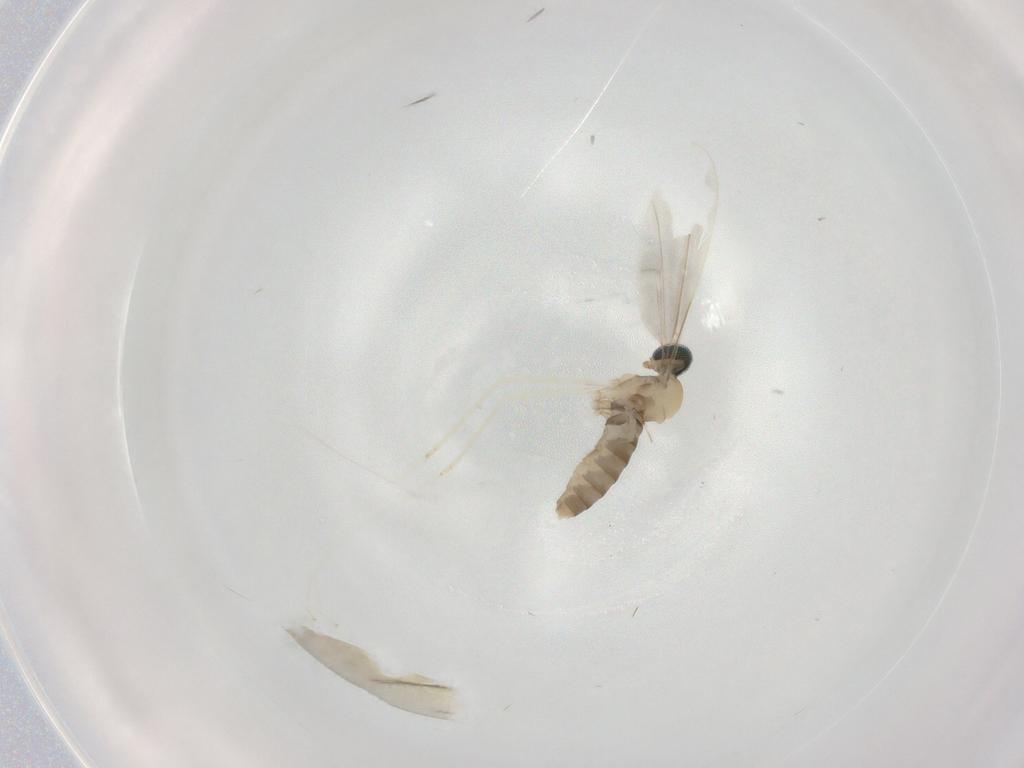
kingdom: Animalia
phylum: Arthropoda
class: Insecta
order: Diptera
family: Cecidomyiidae
